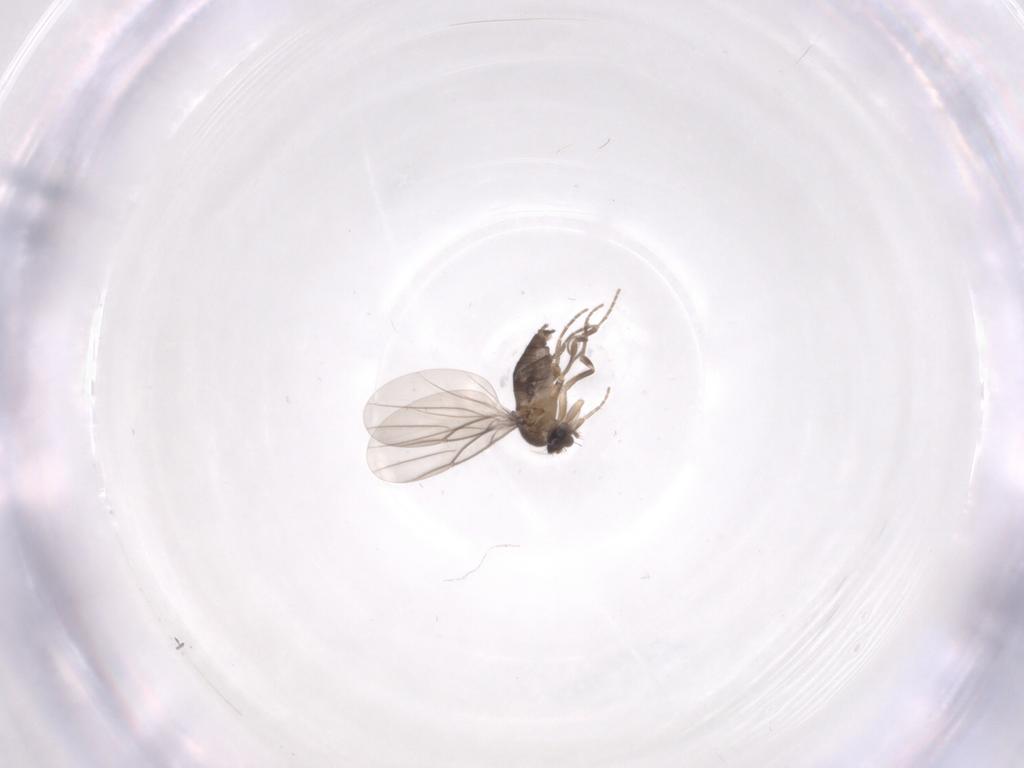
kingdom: Animalia
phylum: Arthropoda
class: Insecta
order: Diptera
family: Phoridae
